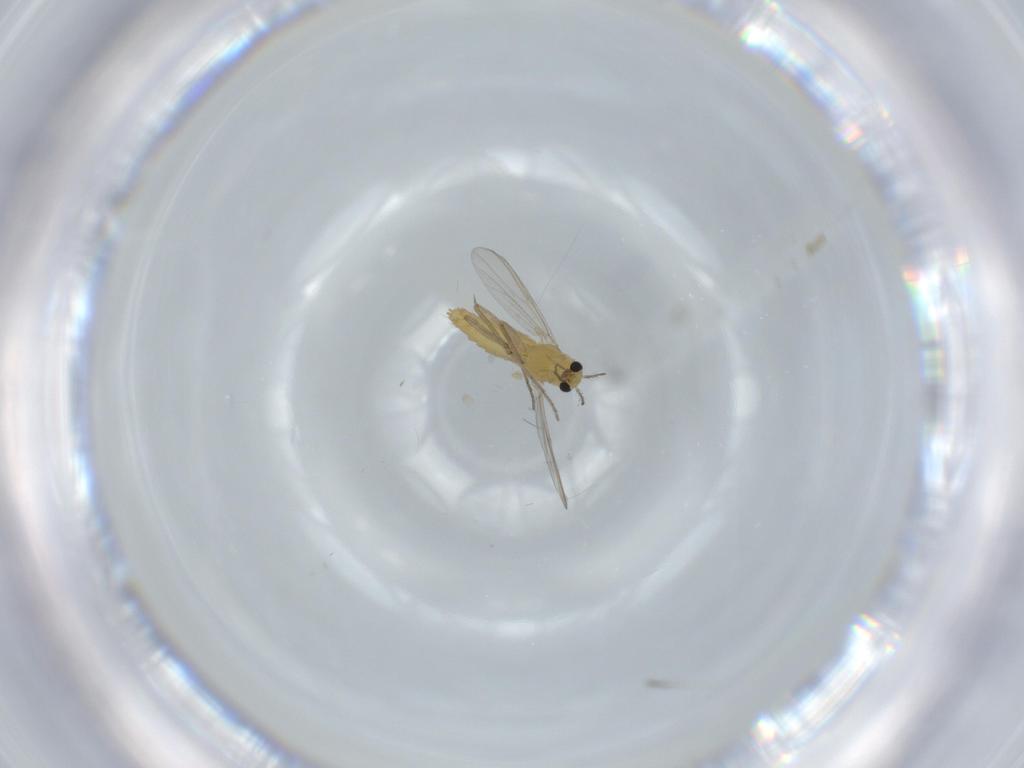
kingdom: Animalia
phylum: Arthropoda
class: Insecta
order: Diptera
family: Chironomidae
